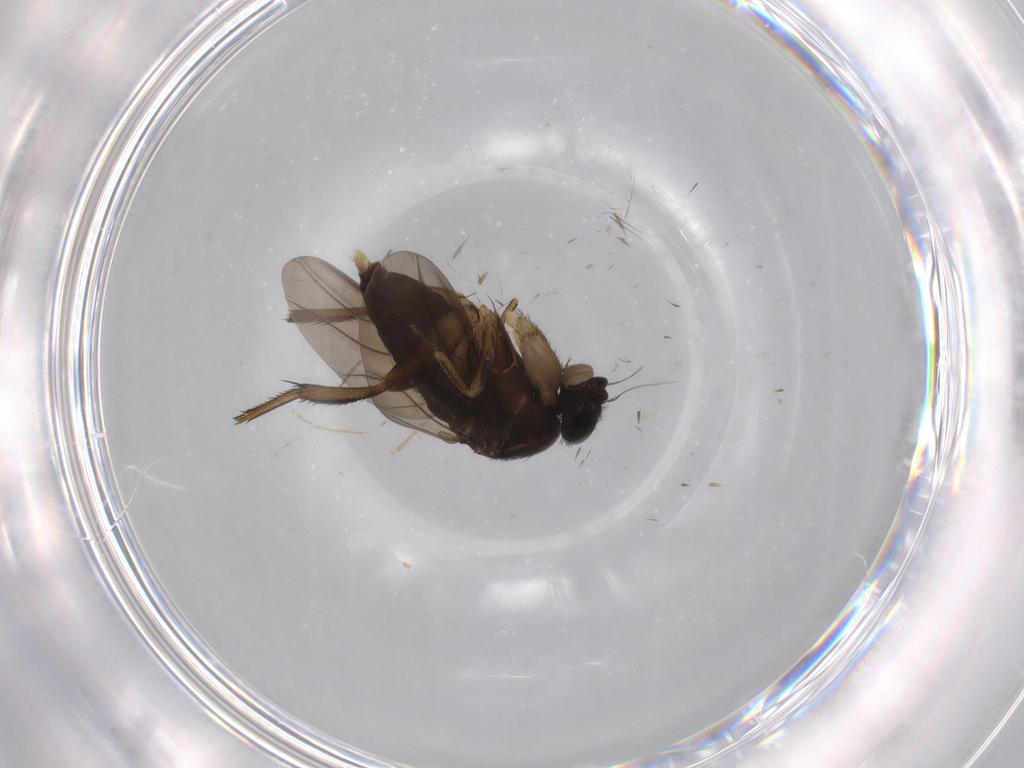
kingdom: Animalia
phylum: Arthropoda
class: Insecta
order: Diptera
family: Phoridae
